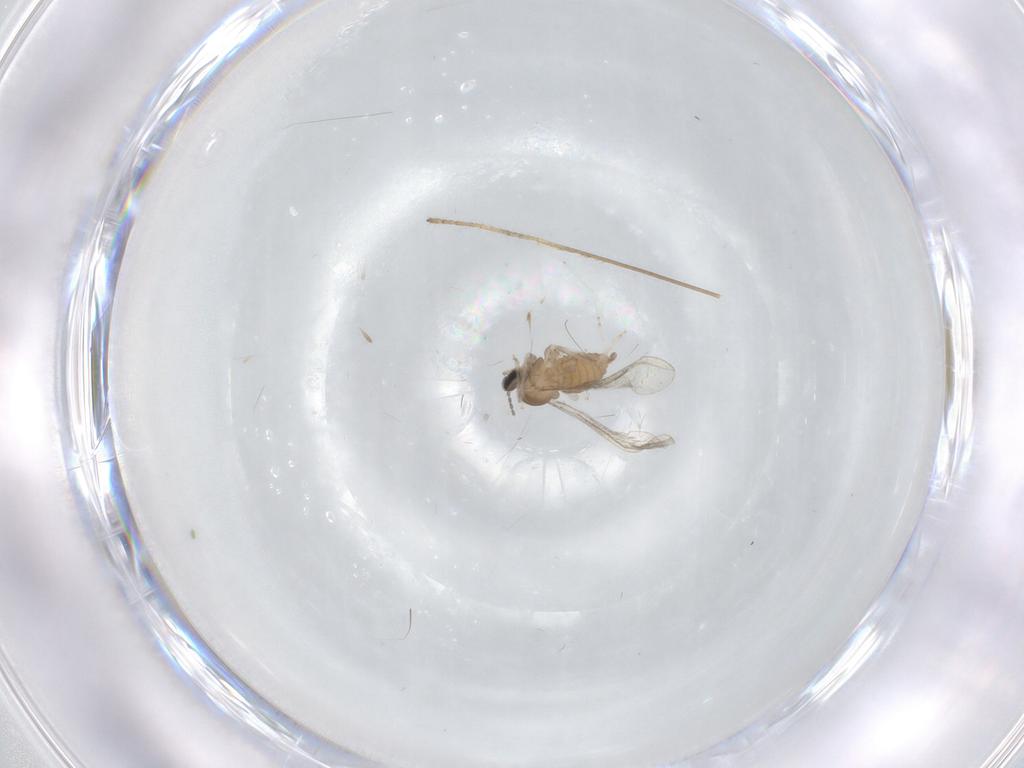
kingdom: Animalia
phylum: Arthropoda
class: Insecta
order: Diptera
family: Cecidomyiidae
